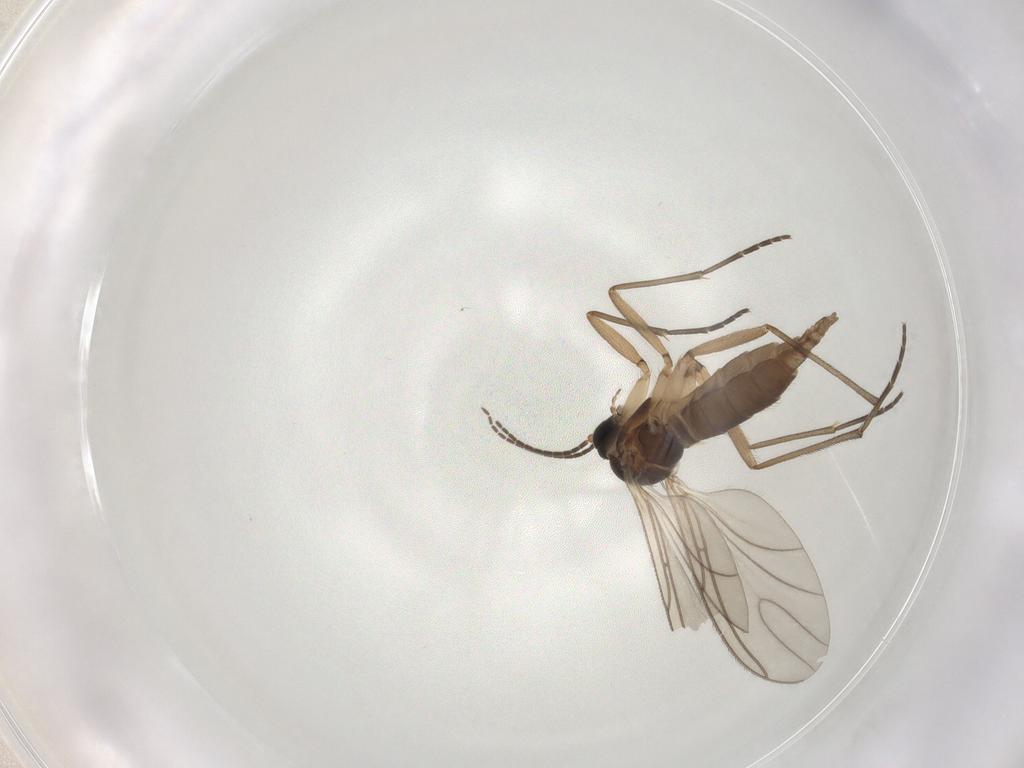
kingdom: Animalia
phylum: Arthropoda
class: Insecta
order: Diptera
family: Sciaridae
